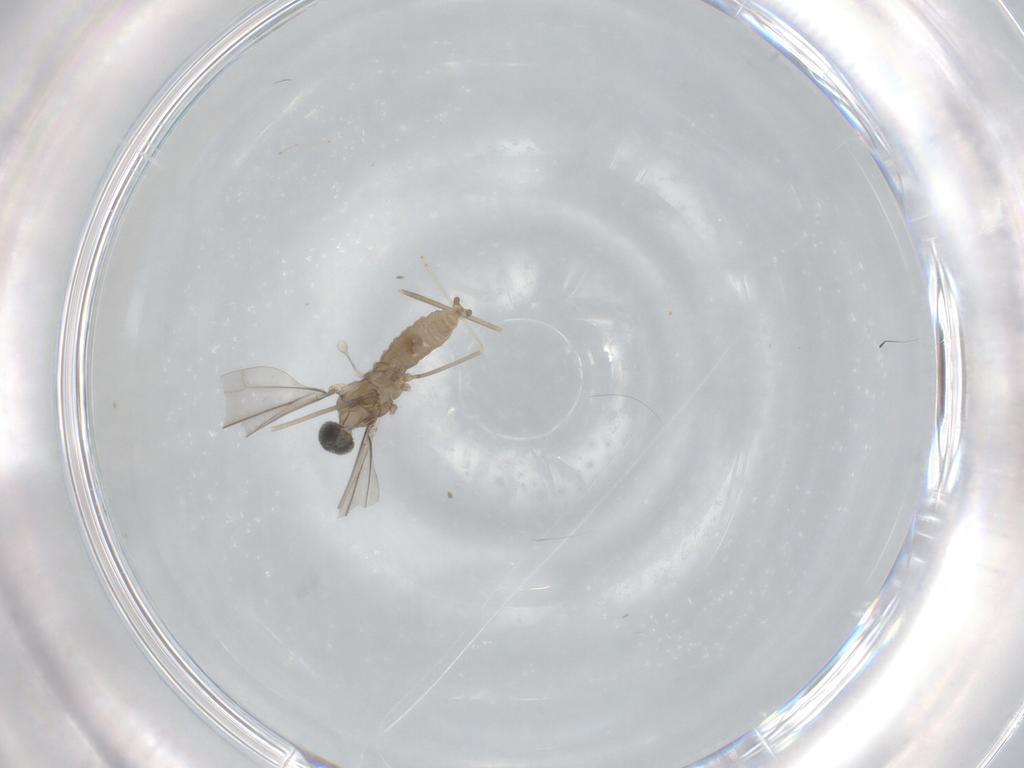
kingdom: Animalia
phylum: Arthropoda
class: Insecta
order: Diptera
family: Cecidomyiidae
